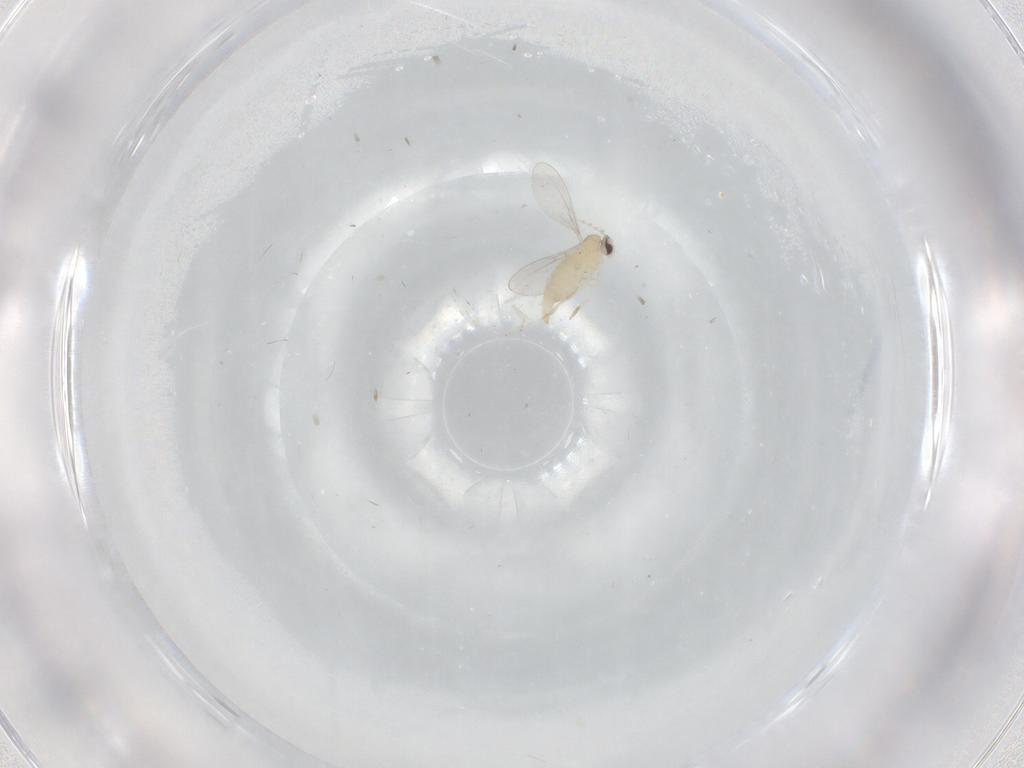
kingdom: Animalia
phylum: Arthropoda
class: Insecta
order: Diptera
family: Cecidomyiidae
